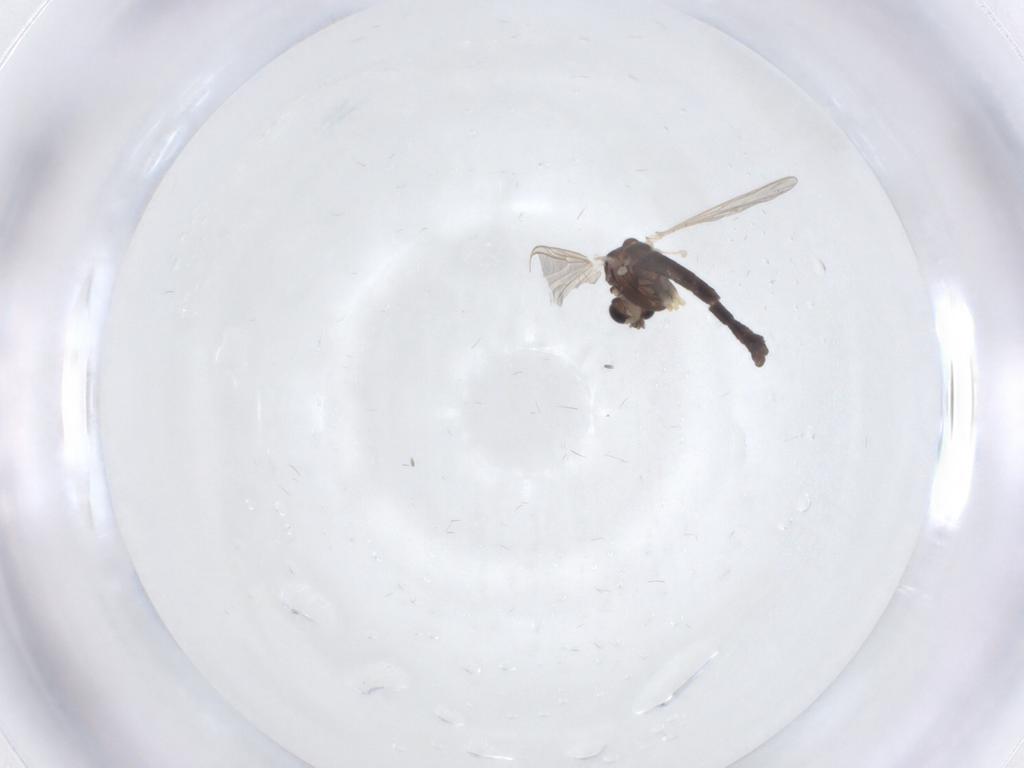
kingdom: Animalia
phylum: Arthropoda
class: Insecta
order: Diptera
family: Chironomidae
